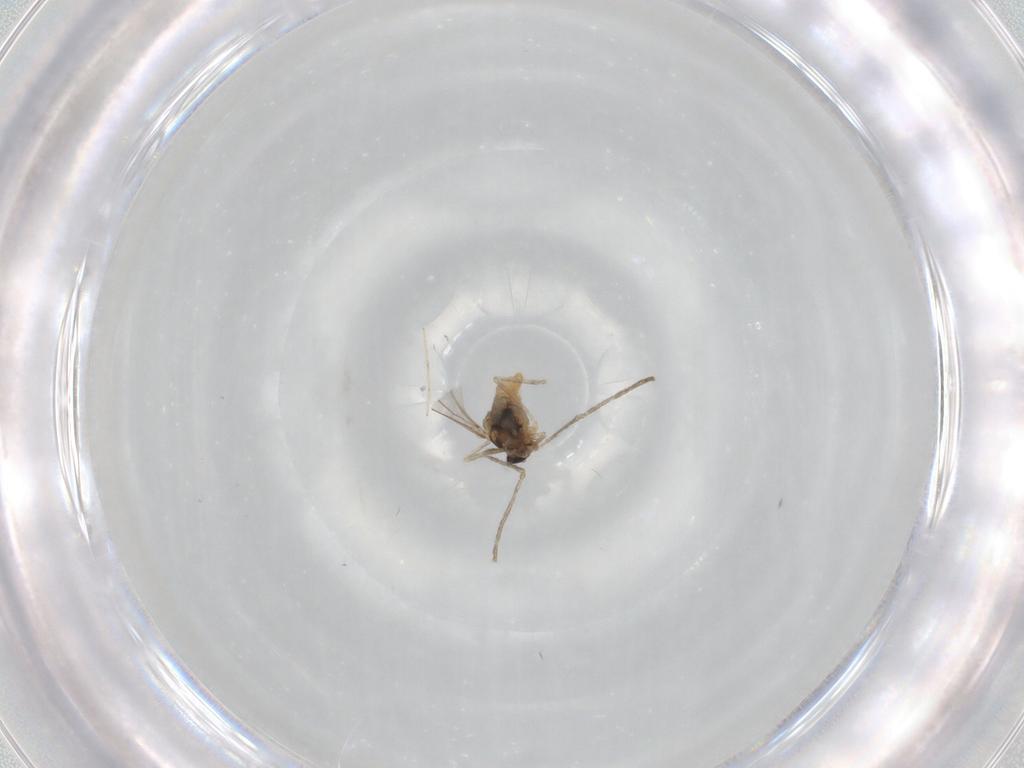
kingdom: Animalia
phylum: Arthropoda
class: Insecta
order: Diptera
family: Cecidomyiidae
